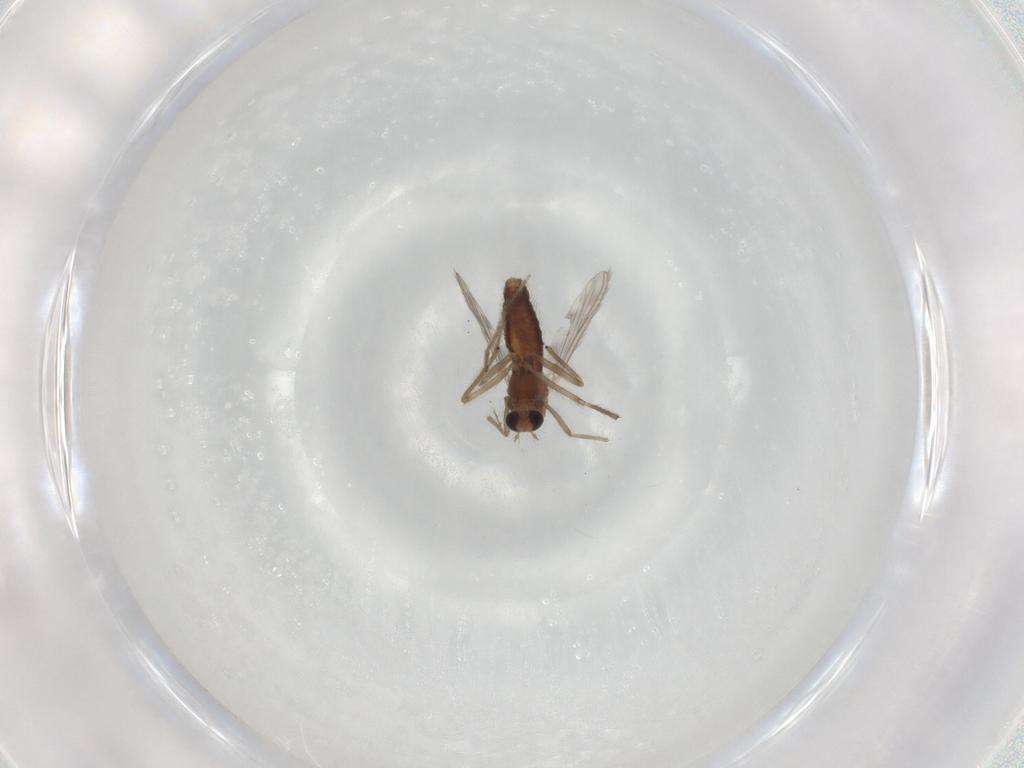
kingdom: Animalia
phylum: Arthropoda
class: Insecta
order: Diptera
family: Chironomidae
